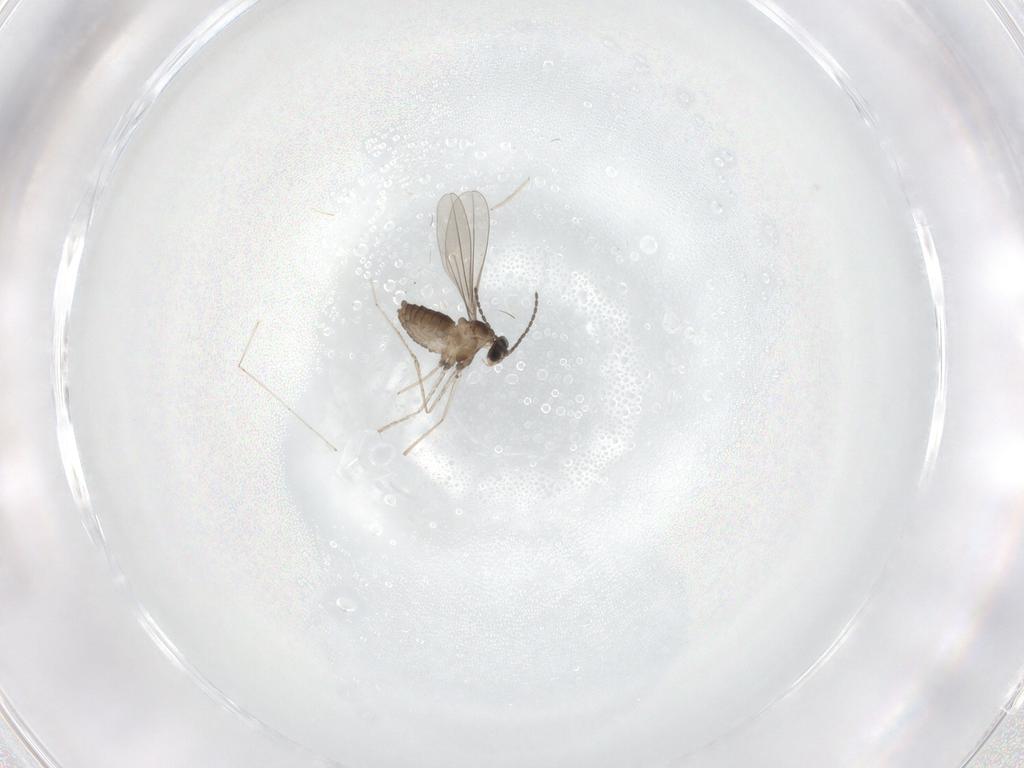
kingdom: Animalia
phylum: Arthropoda
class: Insecta
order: Diptera
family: Cecidomyiidae
